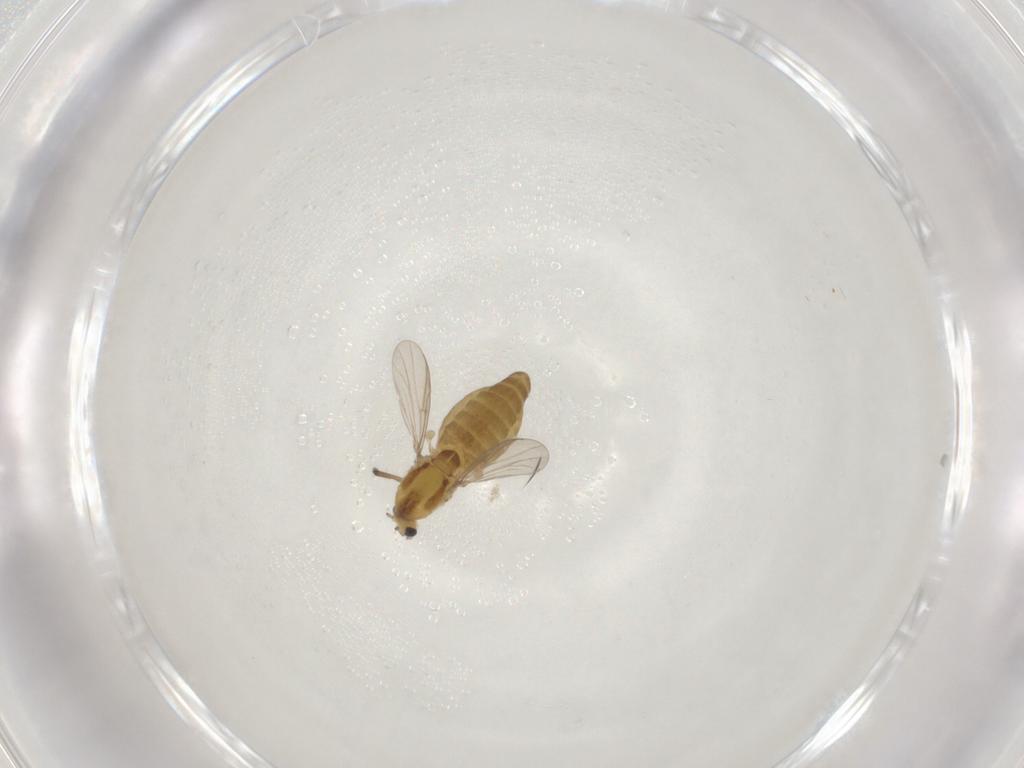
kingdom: Animalia
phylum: Arthropoda
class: Insecta
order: Diptera
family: Chironomidae
